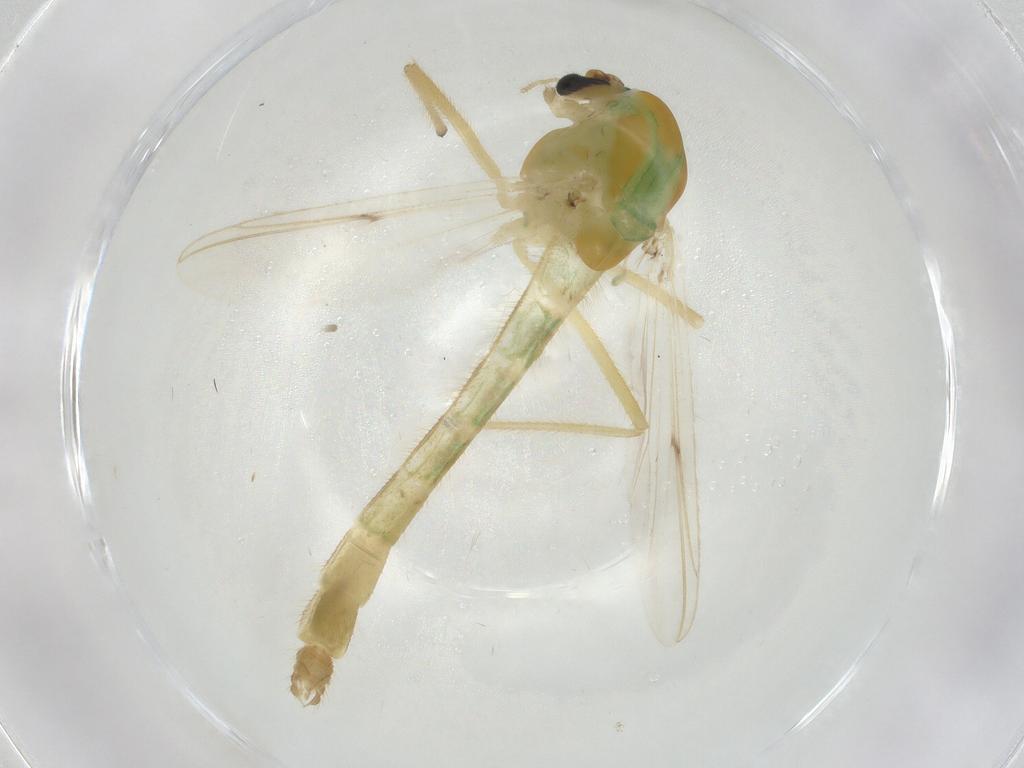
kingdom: Animalia
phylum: Arthropoda
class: Insecta
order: Diptera
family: Chironomidae
